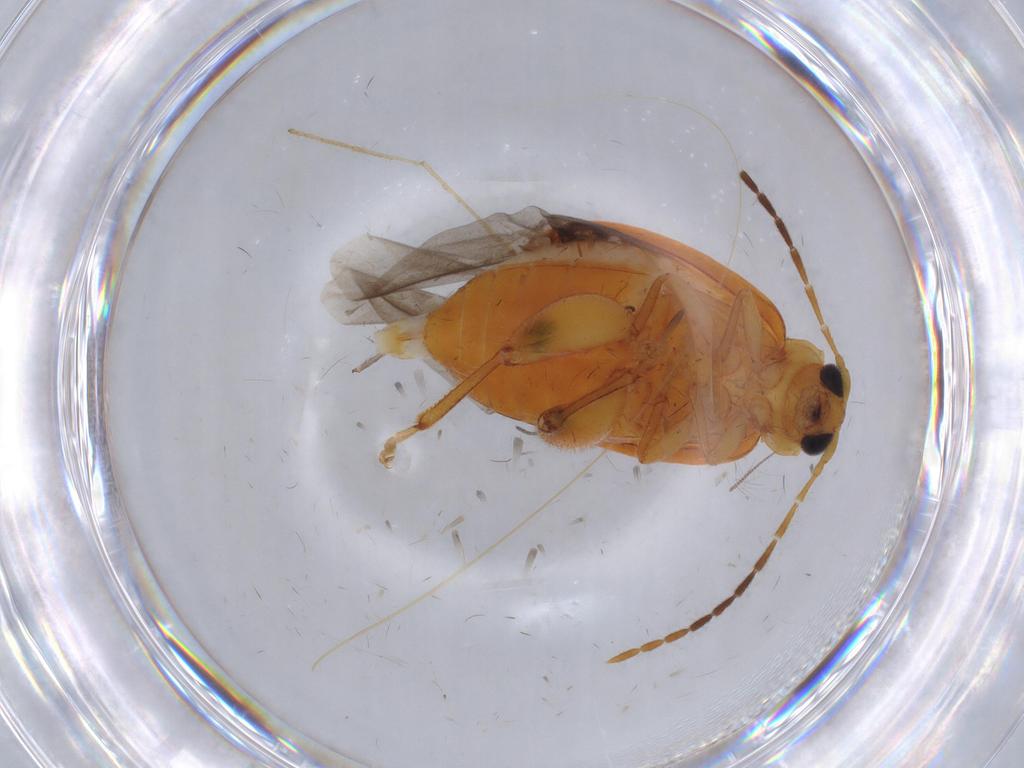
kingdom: Animalia
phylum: Arthropoda
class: Insecta
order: Coleoptera
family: Chrysomelidae
